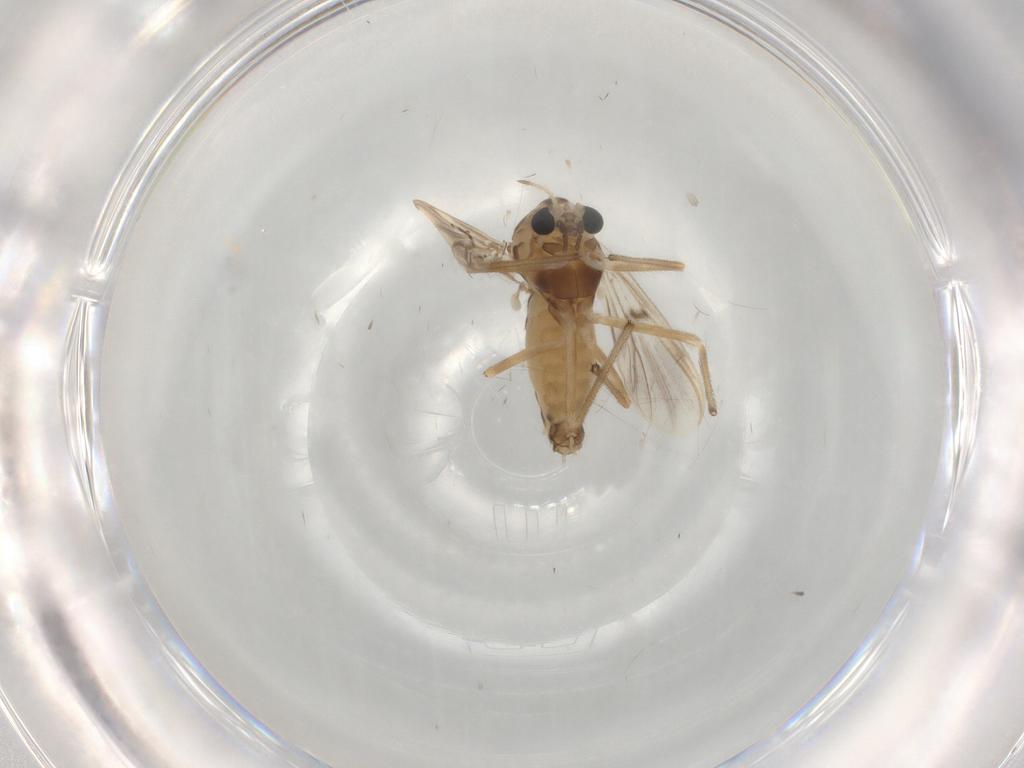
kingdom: Animalia
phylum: Arthropoda
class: Insecta
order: Diptera
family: Chironomidae
